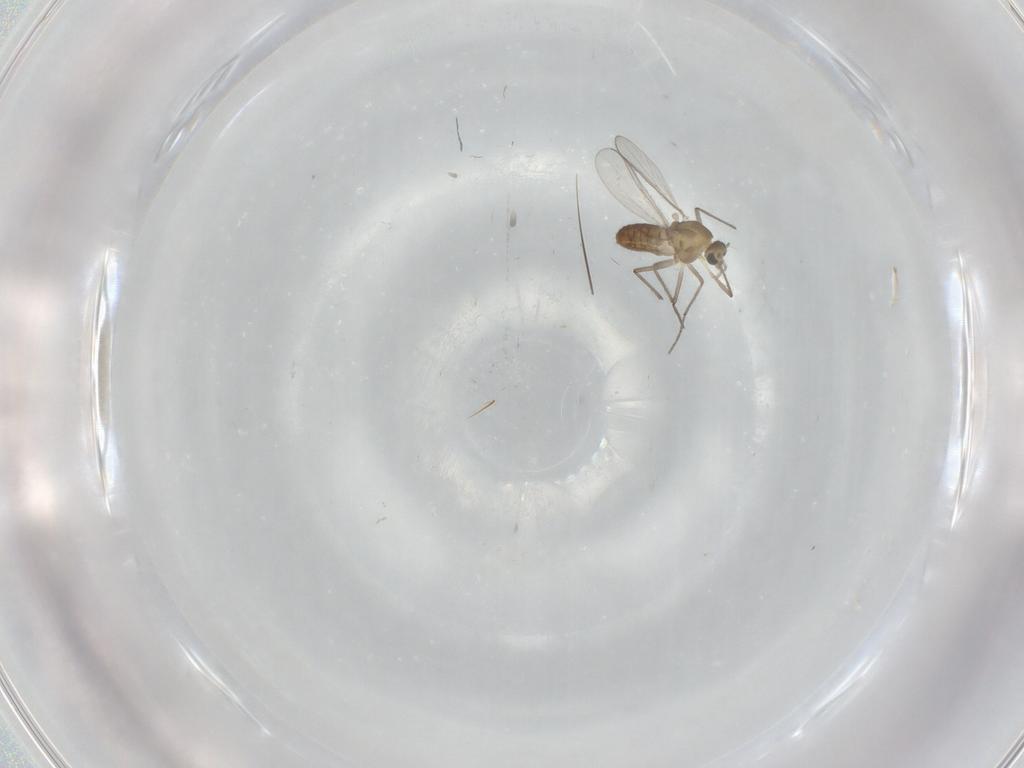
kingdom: Animalia
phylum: Arthropoda
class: Insecta
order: Diptera
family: Chironomidae
